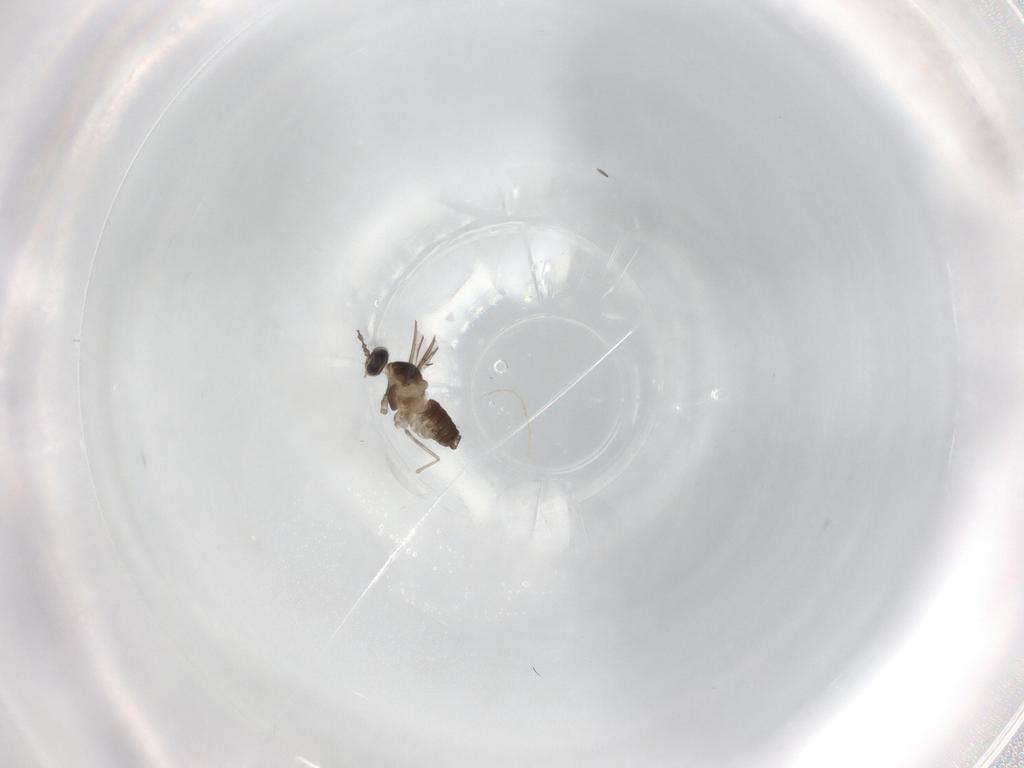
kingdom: Animalia
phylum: Arthropoda
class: Insecta
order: Diptera
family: Cecidomyiidae
